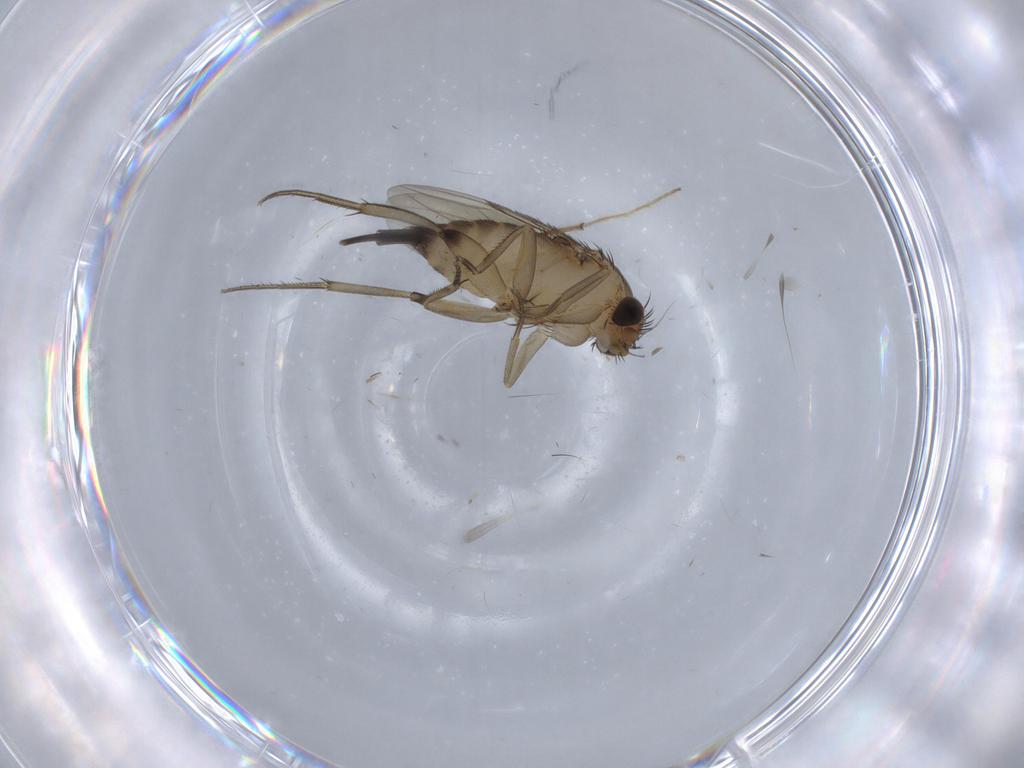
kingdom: Animalia
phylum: Arthropoda
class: Insecta
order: Diptera
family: Phoridae
